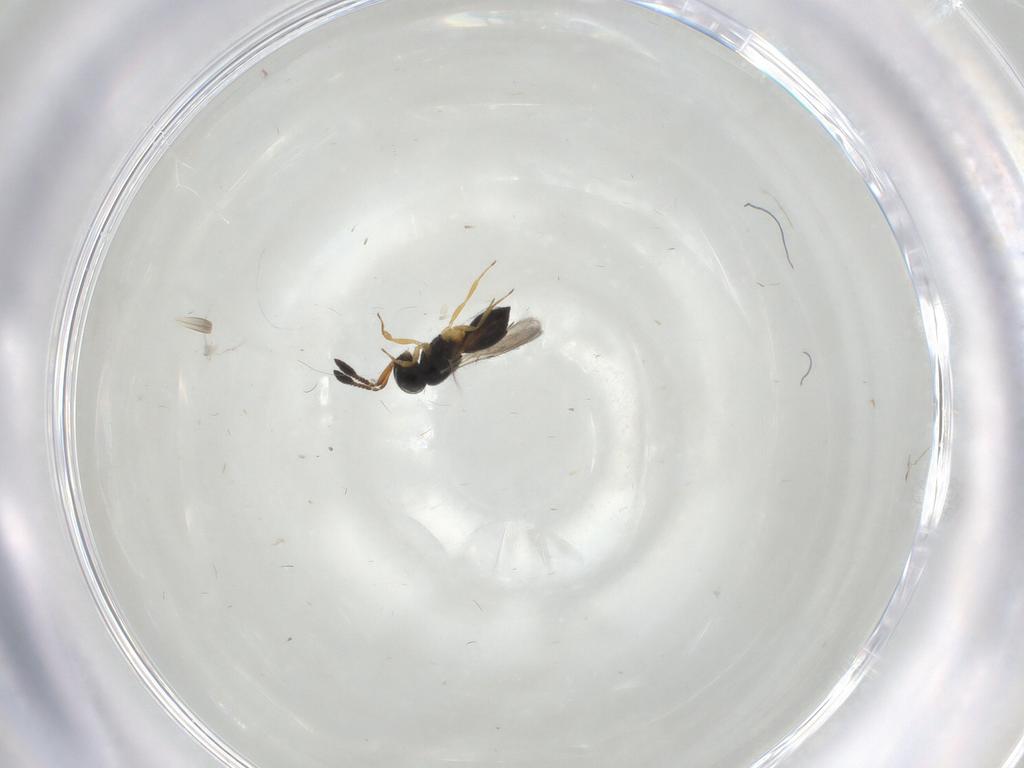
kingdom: Animalia
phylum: Arthropoda
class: Insecta
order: Hymenoptera
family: Scelionidae
